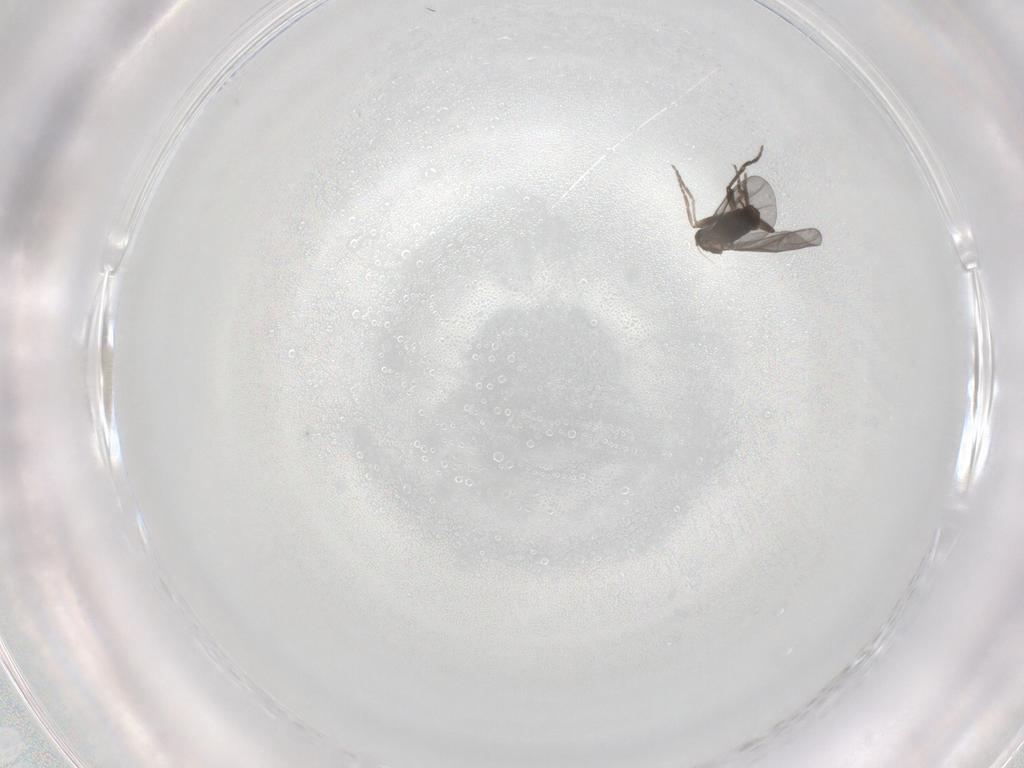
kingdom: Animalia
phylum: Arthropoda
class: Insecta
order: Diptera
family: Phoridae
